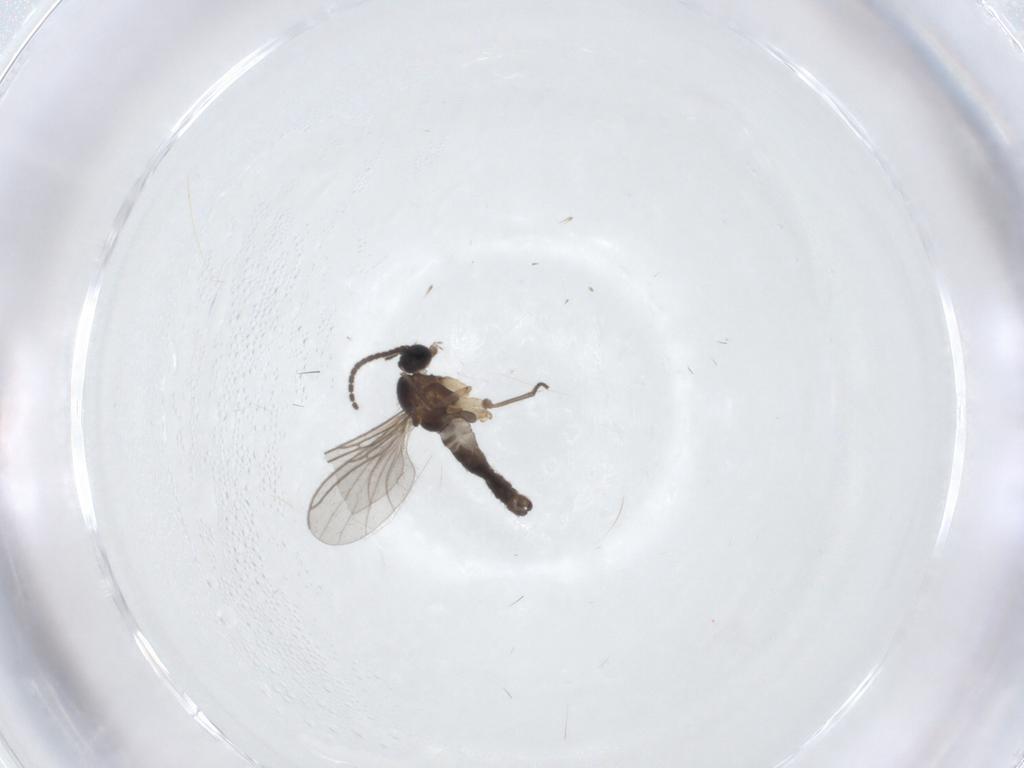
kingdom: Animalia
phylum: Arthropoda
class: Insecta
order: Diptera
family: Sciaridae
